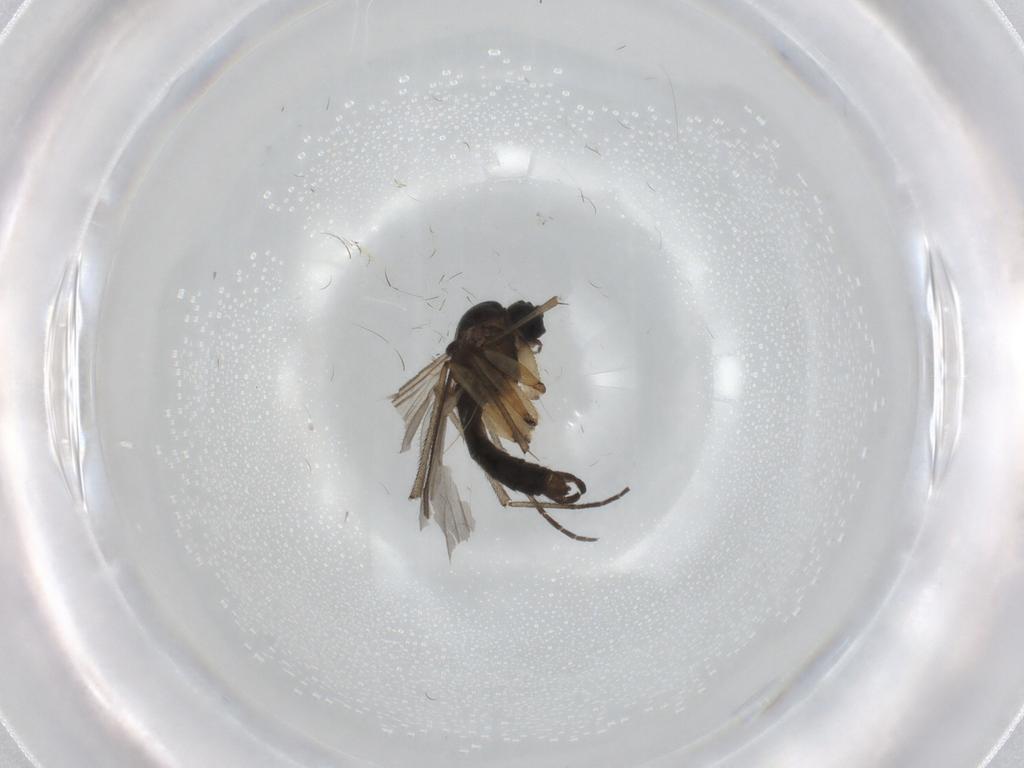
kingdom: Animalia
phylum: Arthropoda
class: Insecta
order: Diptera
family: Sciaridae
